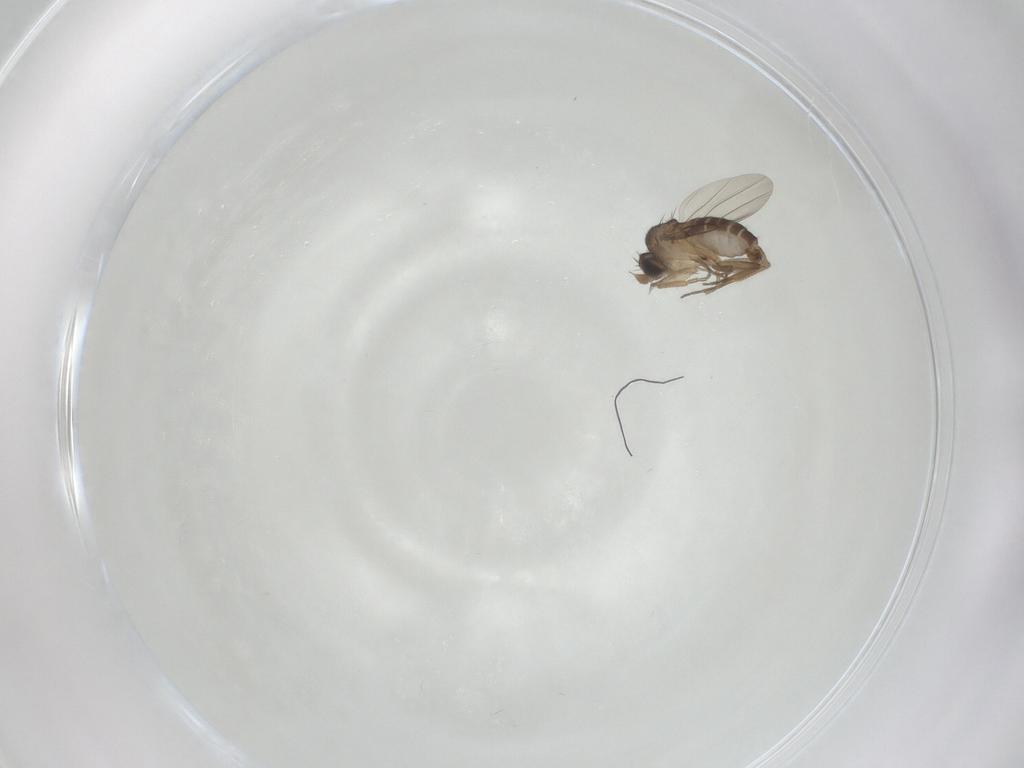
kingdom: Animalia
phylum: Arthropoda
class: Insecta
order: Diptera
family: Phoridae
